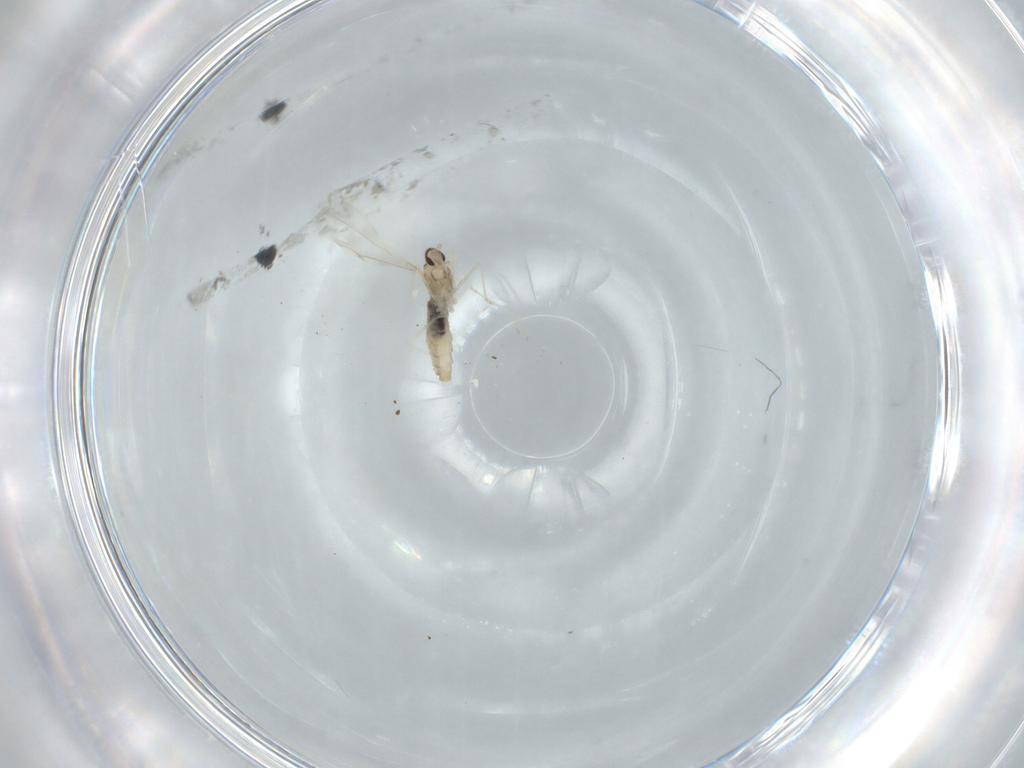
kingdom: Animalia
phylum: Arthropoda
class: Insecta
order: Diptera
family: Cecidomyiidae
